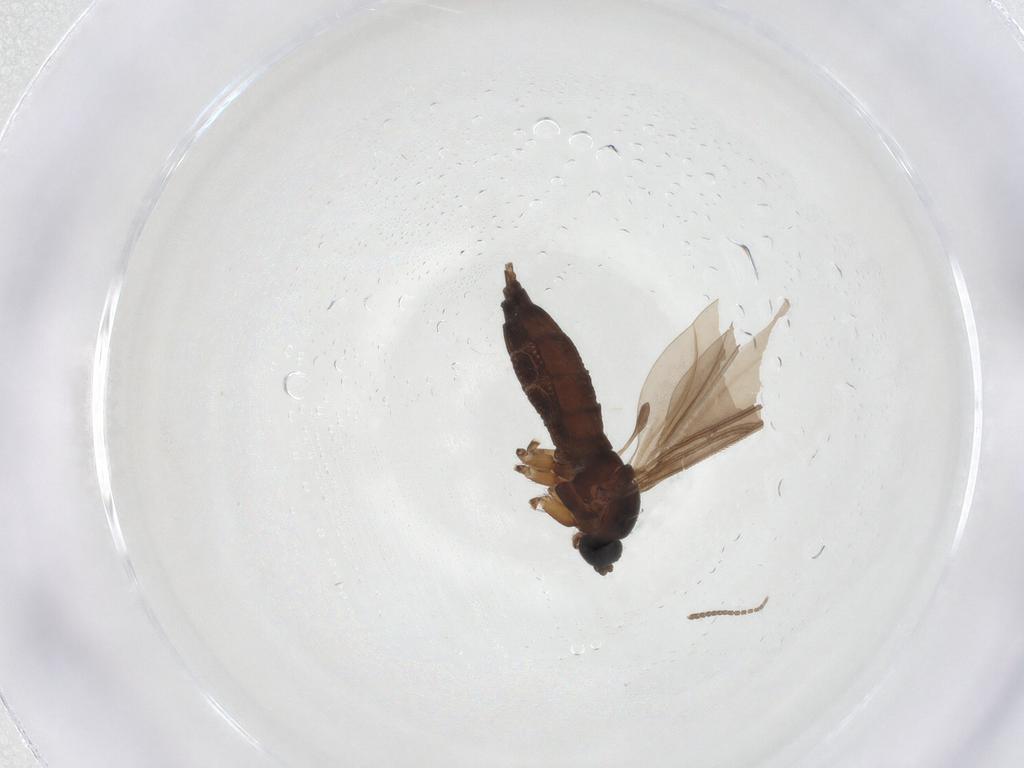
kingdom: Animalia
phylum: Arthropoda
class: Insecta
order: Diptera
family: Sciaridae
